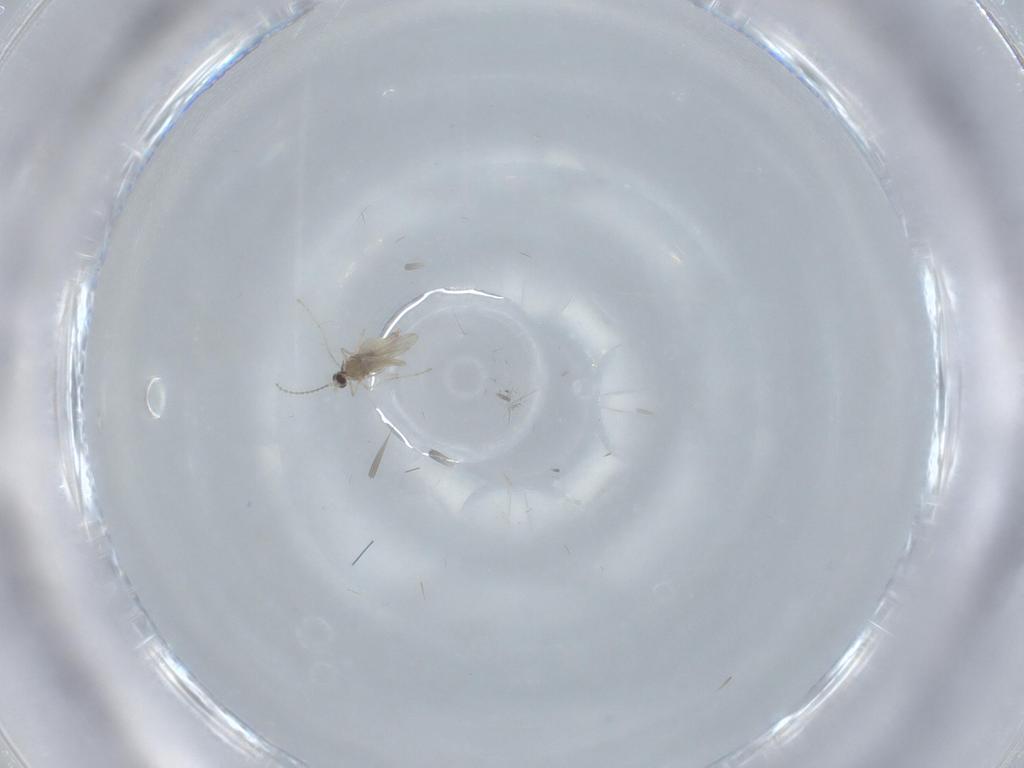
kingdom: Animalia
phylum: Arthropoda
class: Insecta
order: Diptera
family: Cecidomyiidae
